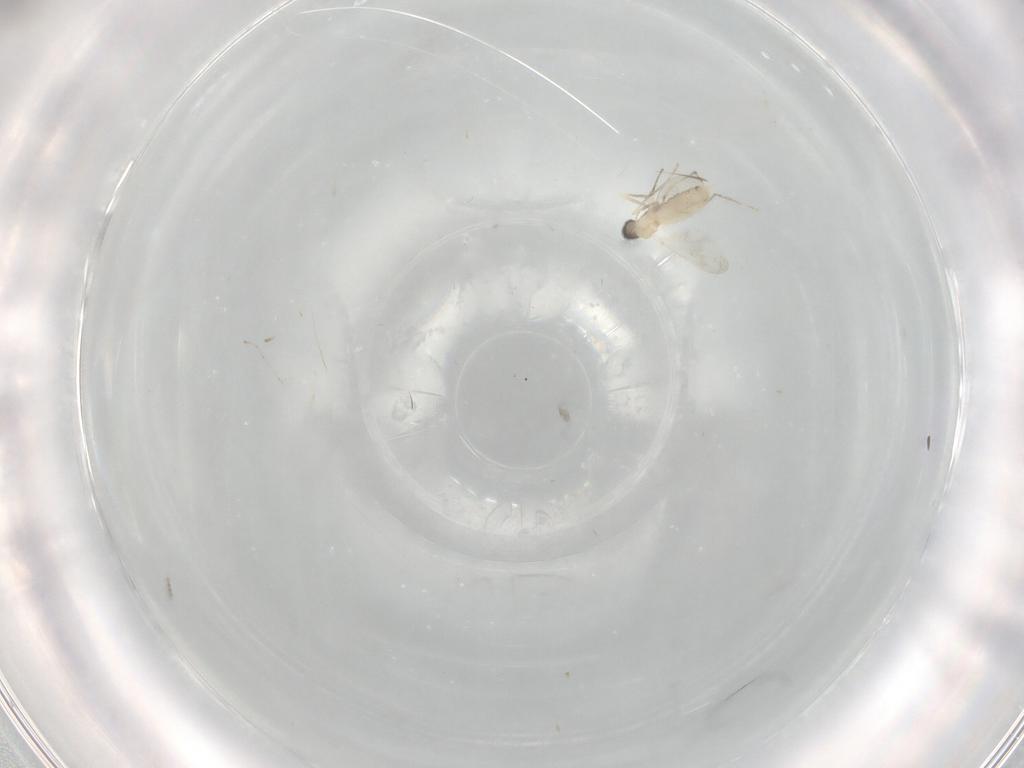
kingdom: Animalia
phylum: Arthropoda
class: Insecta
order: Diptera
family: Cecidomyiidae
